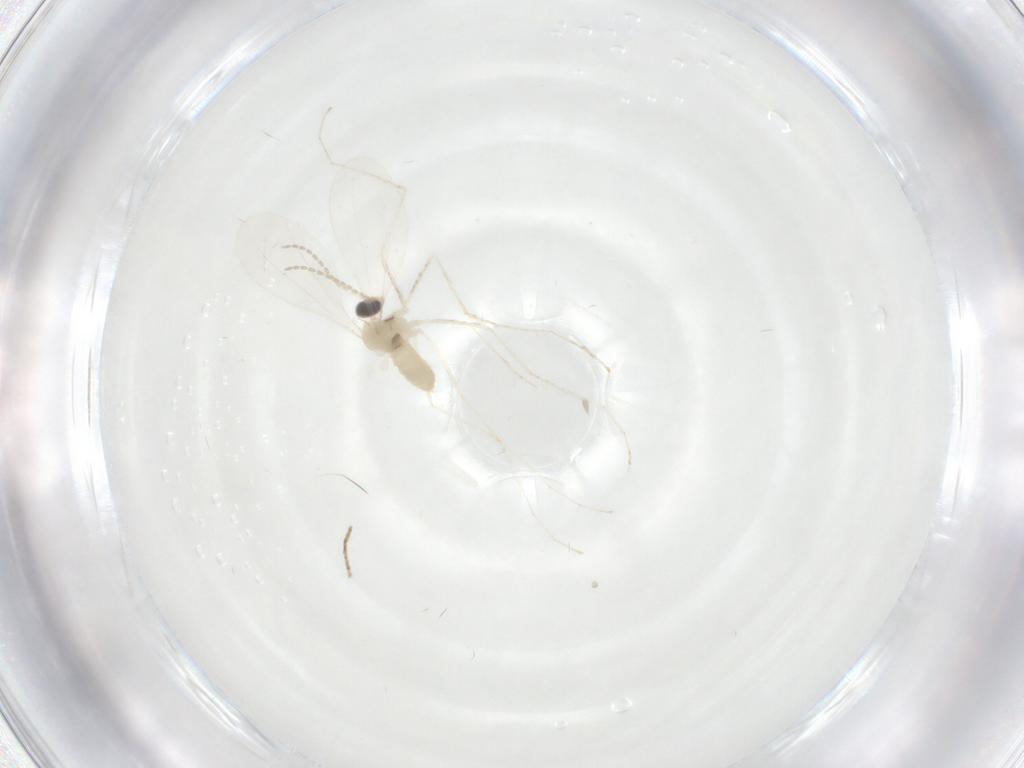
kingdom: Animalia
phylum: Arthropoda
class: Insecta
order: Diptera
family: Cecidomyiidae
